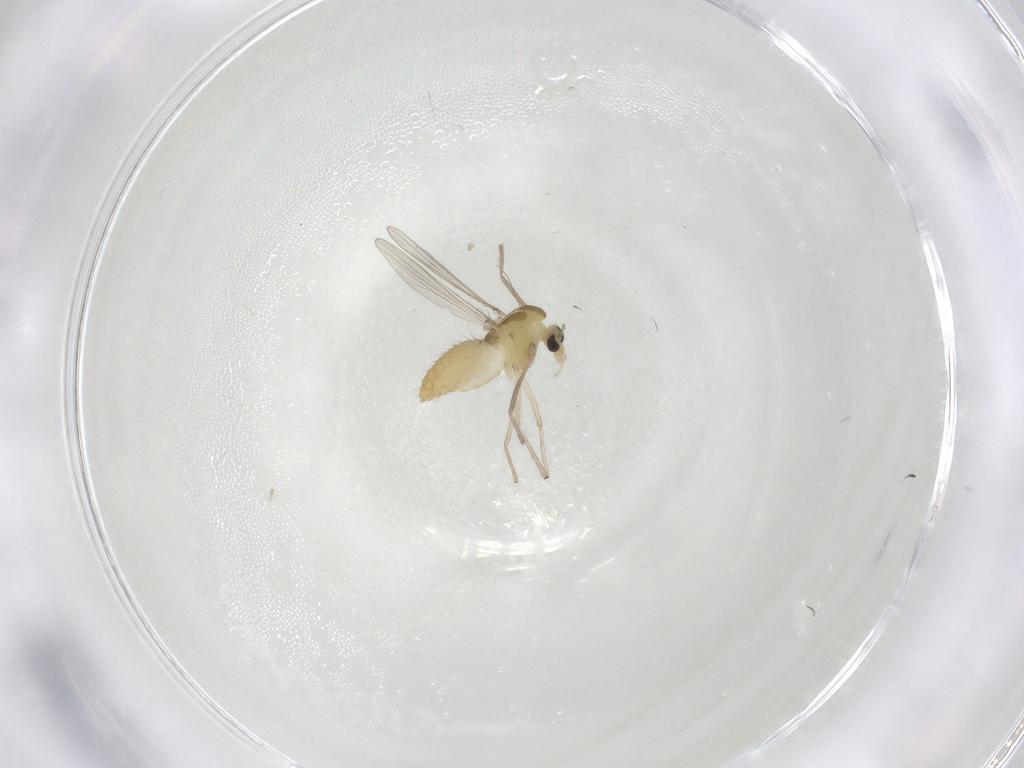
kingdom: Animalia
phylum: Arthropoda
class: Insecta
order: Diptera
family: Chironomidae
